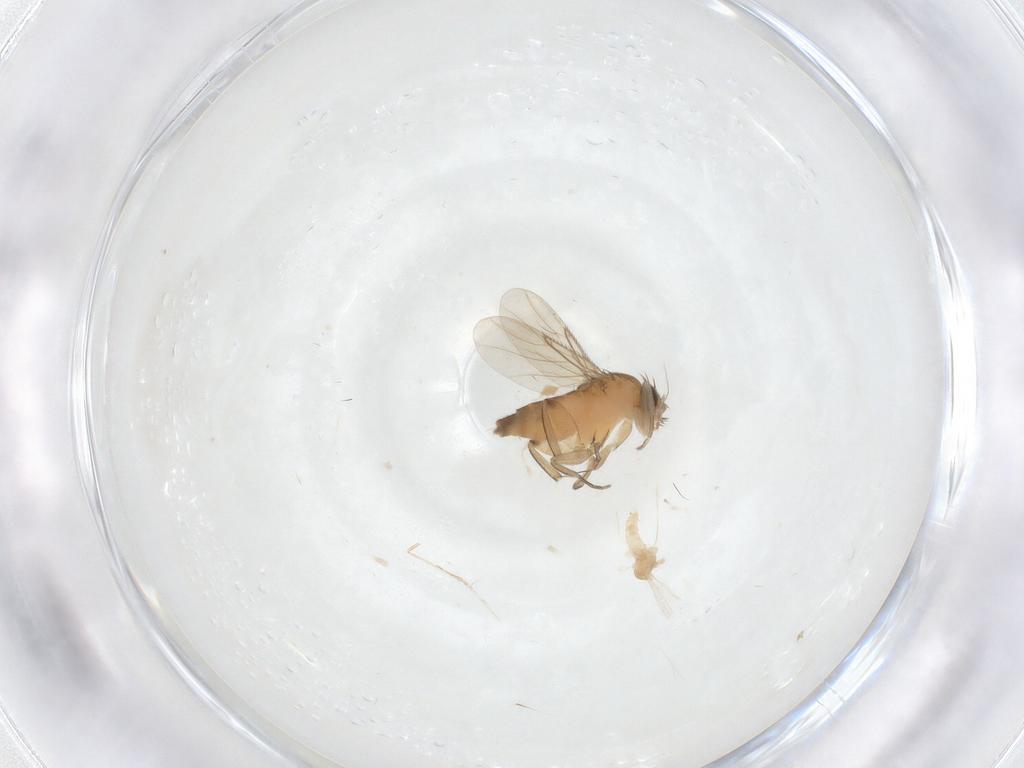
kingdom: Animalia
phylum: Arthropoda
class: Insecta
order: Diptera
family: Cecidomyiidae
